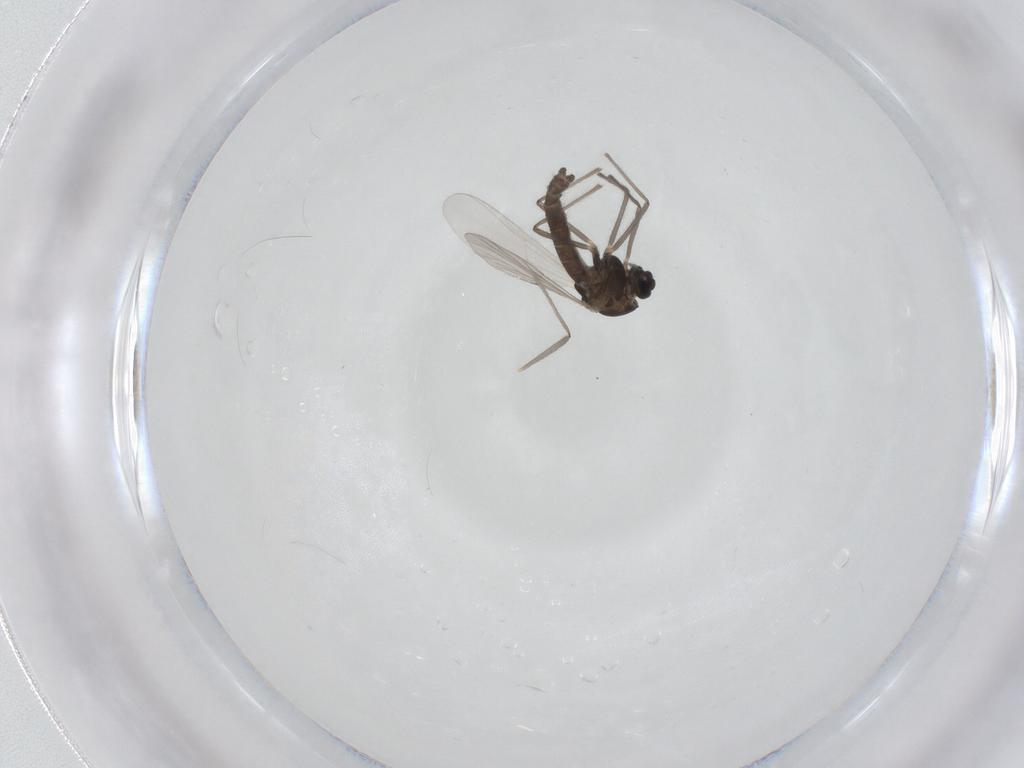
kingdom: Animalia
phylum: Arthropoda
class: Insecta
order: Diptera
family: Chironomidae
